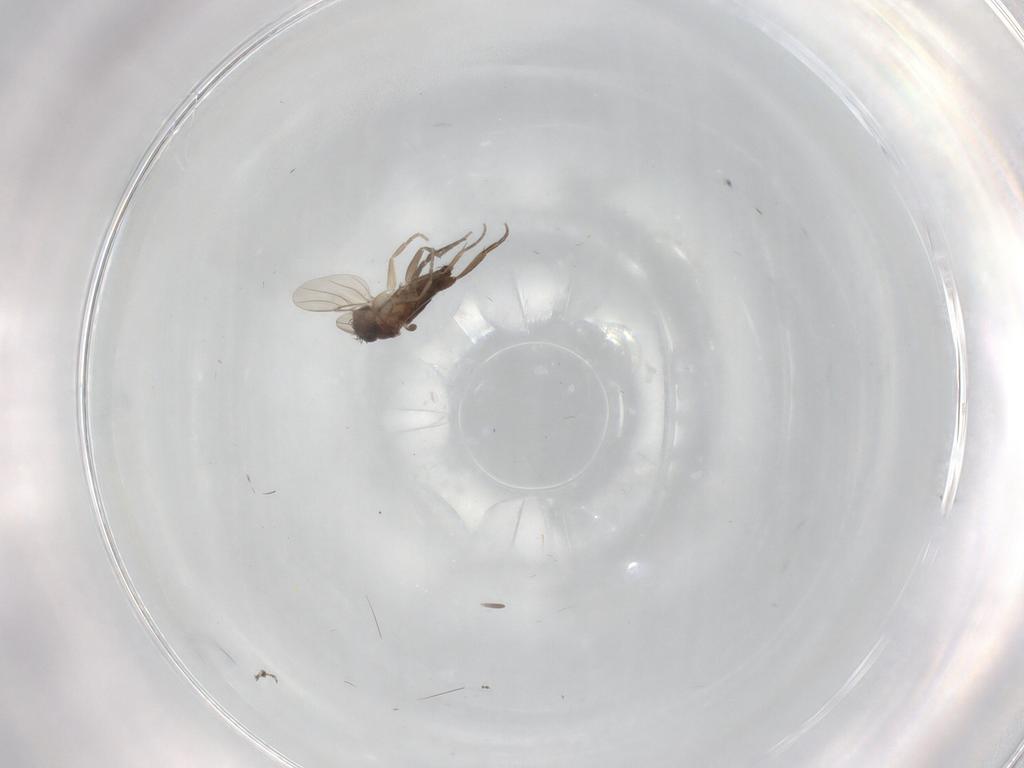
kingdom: Animalia
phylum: Arthropoda
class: Insecta
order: Diptera
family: Phoridae
